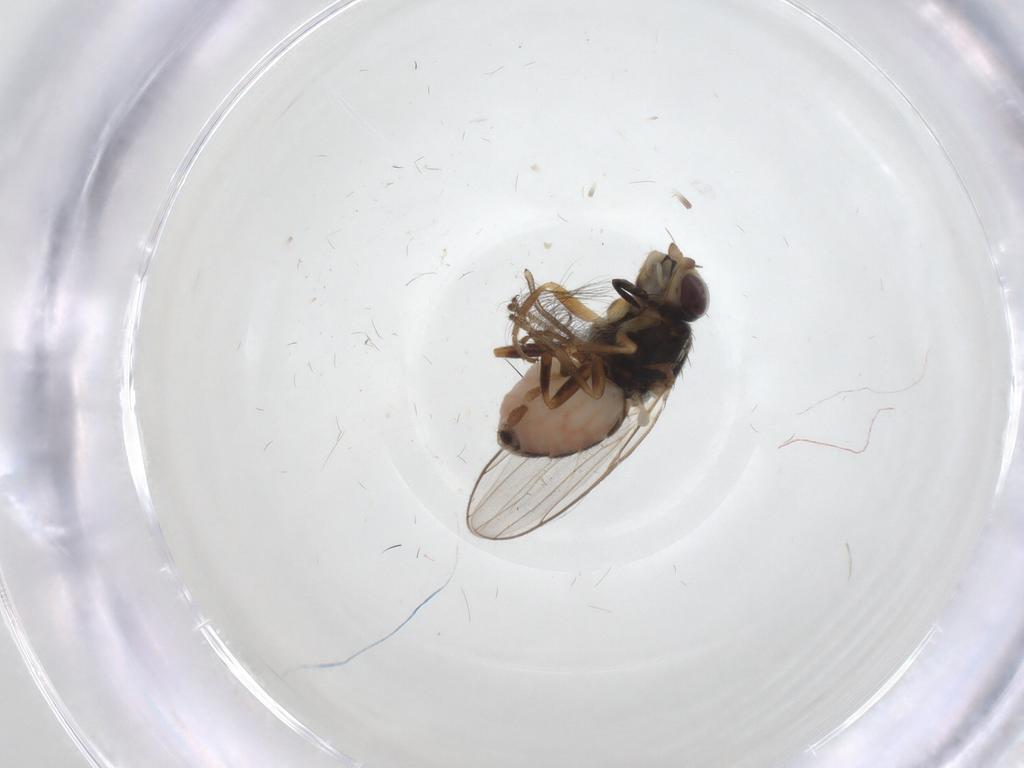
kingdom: Animalia
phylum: Arthropoda
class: Insecta
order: Diptera
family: Chloropidae
